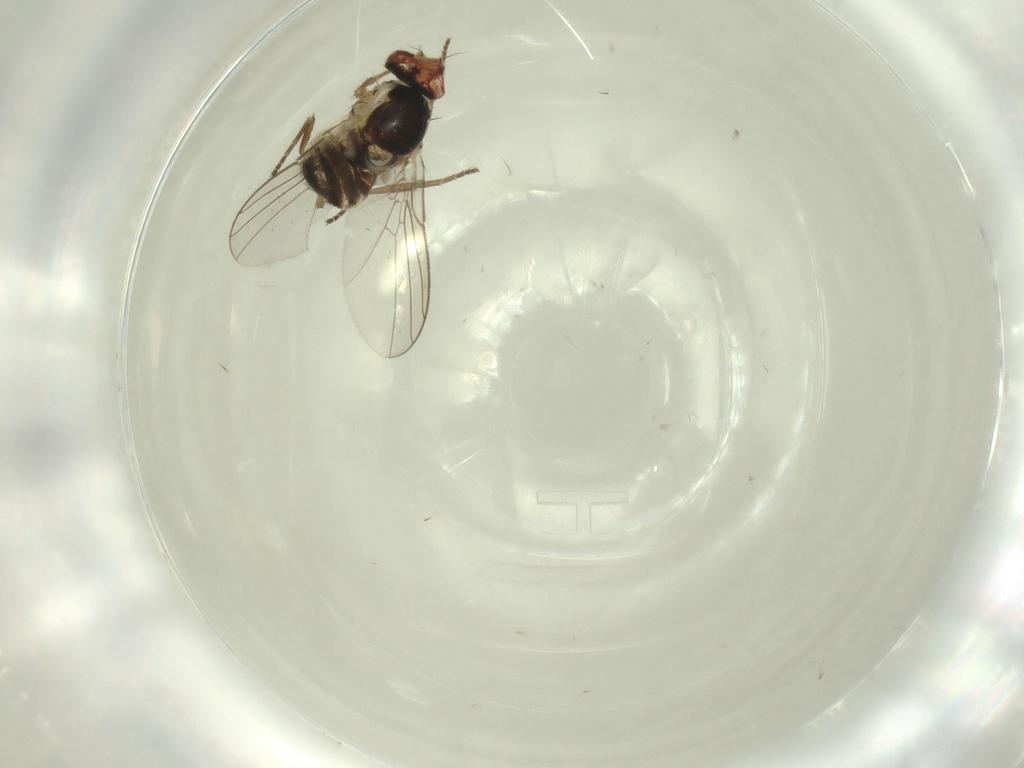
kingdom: Animalia
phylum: Arthropoda
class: Insecta
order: Diptera
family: Agromyzidae
